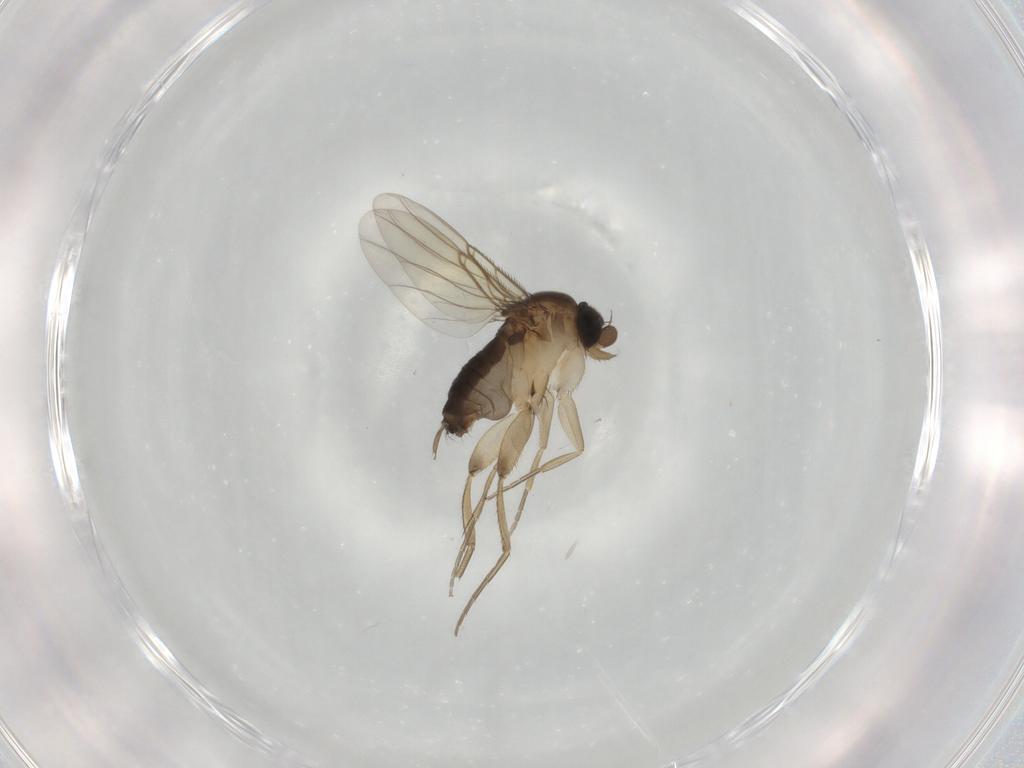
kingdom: Animalia
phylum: Arthropoda
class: Insecta
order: Diptera
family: Phoridae
